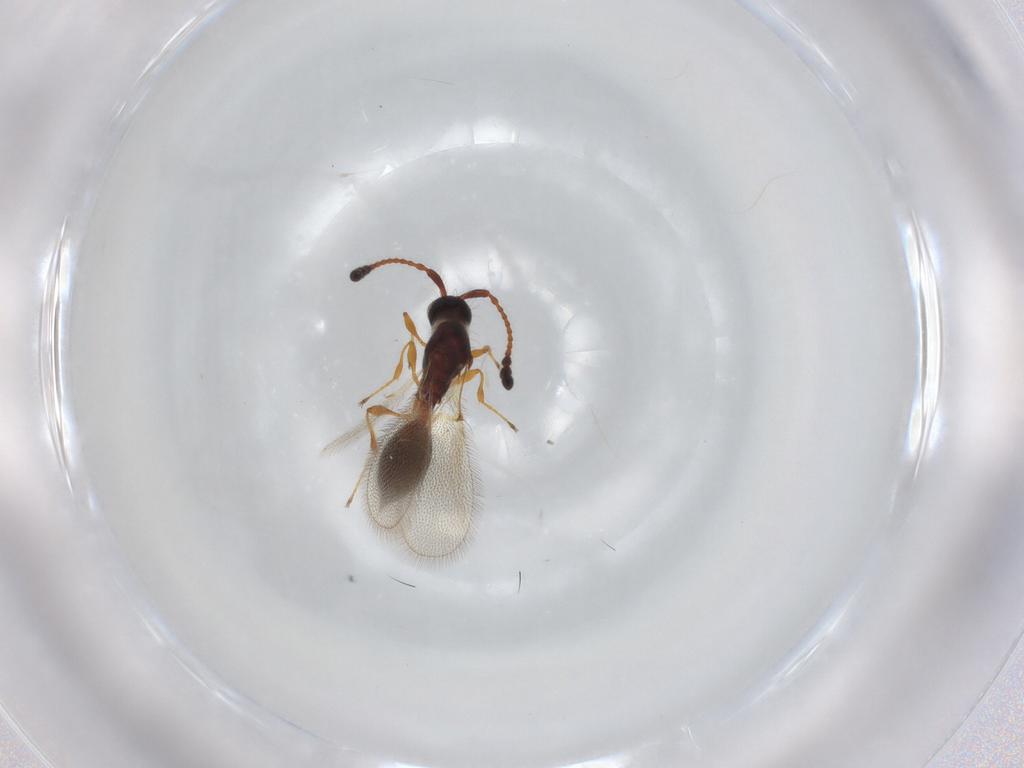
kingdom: Animalia
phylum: Arthropoda
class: Insecta
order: Hymenoptera
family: Diapriidae
